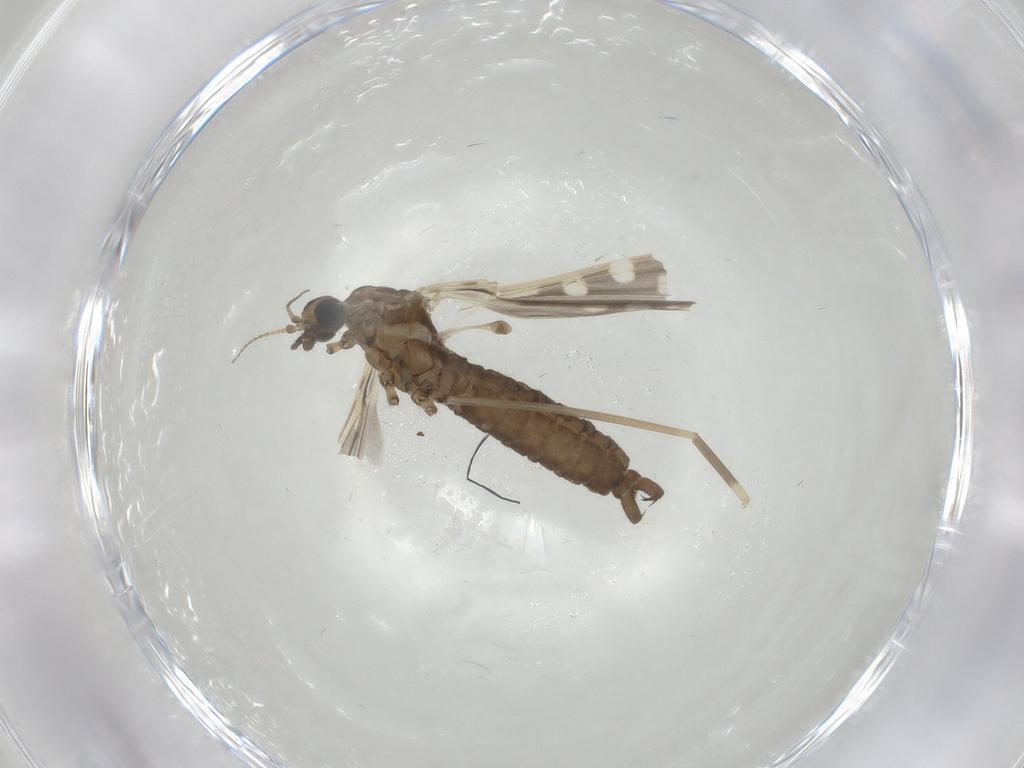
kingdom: Animalia
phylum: Arthropoda
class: Insecta
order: Diptera
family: Limoniidae
